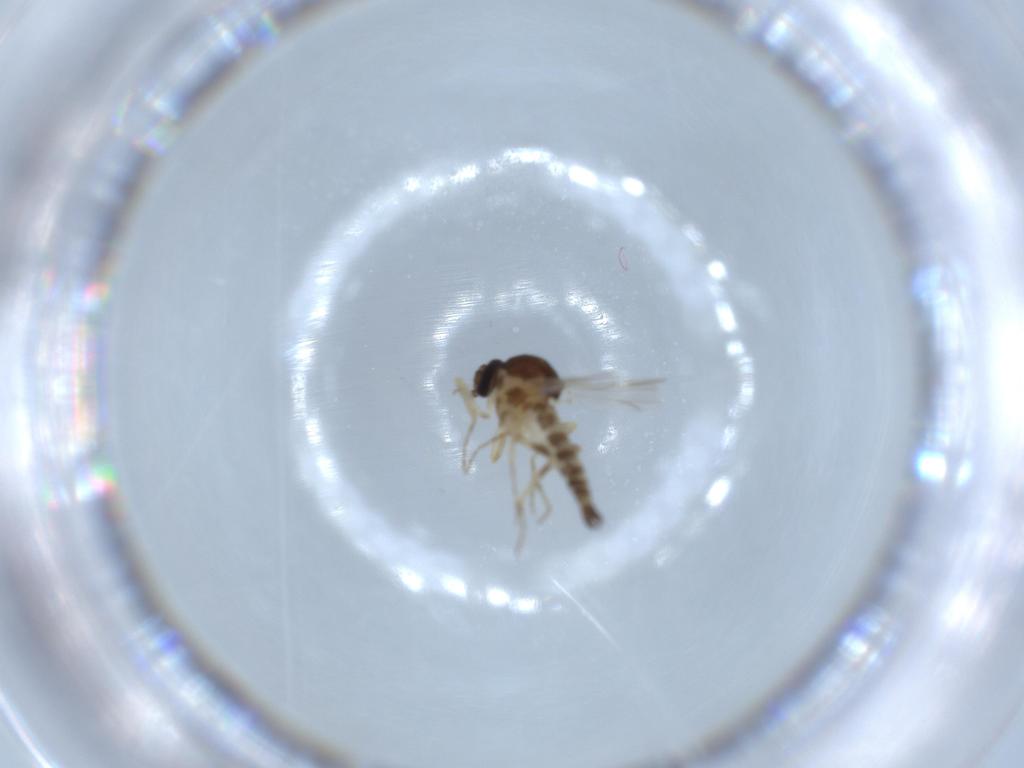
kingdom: Animalia
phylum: Arthropoda
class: Insecta
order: Diptera
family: Ceratopogonidae
